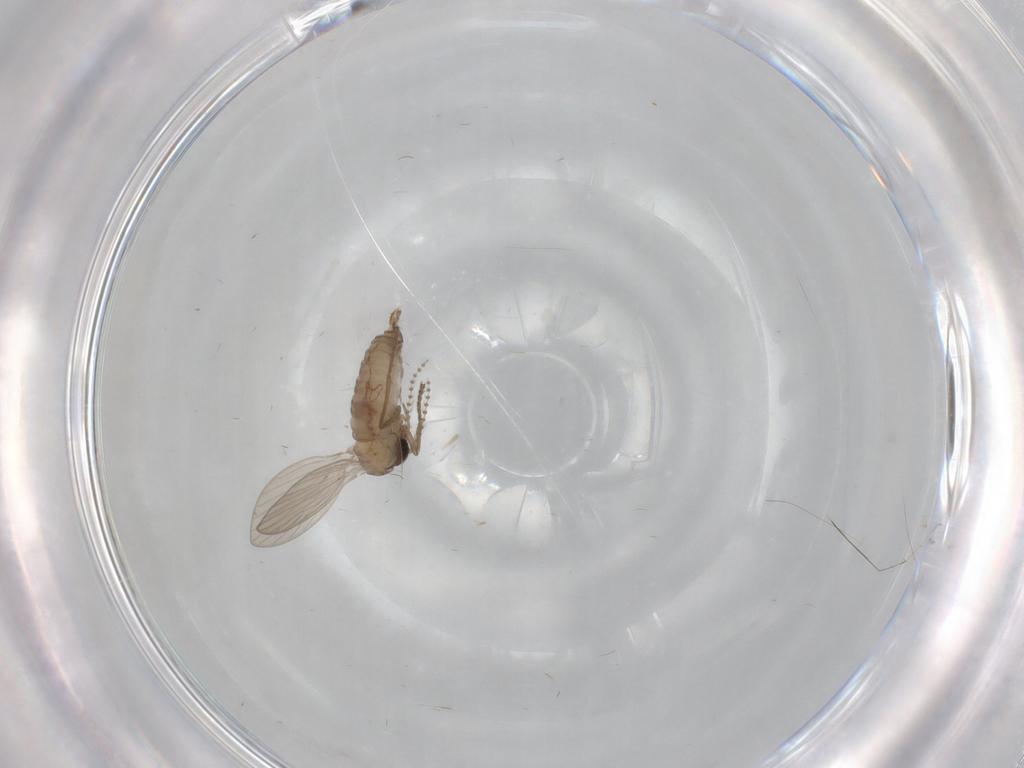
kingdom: Animalia
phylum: Arthropoda
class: Insecta
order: Diptera
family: Psychodidae
